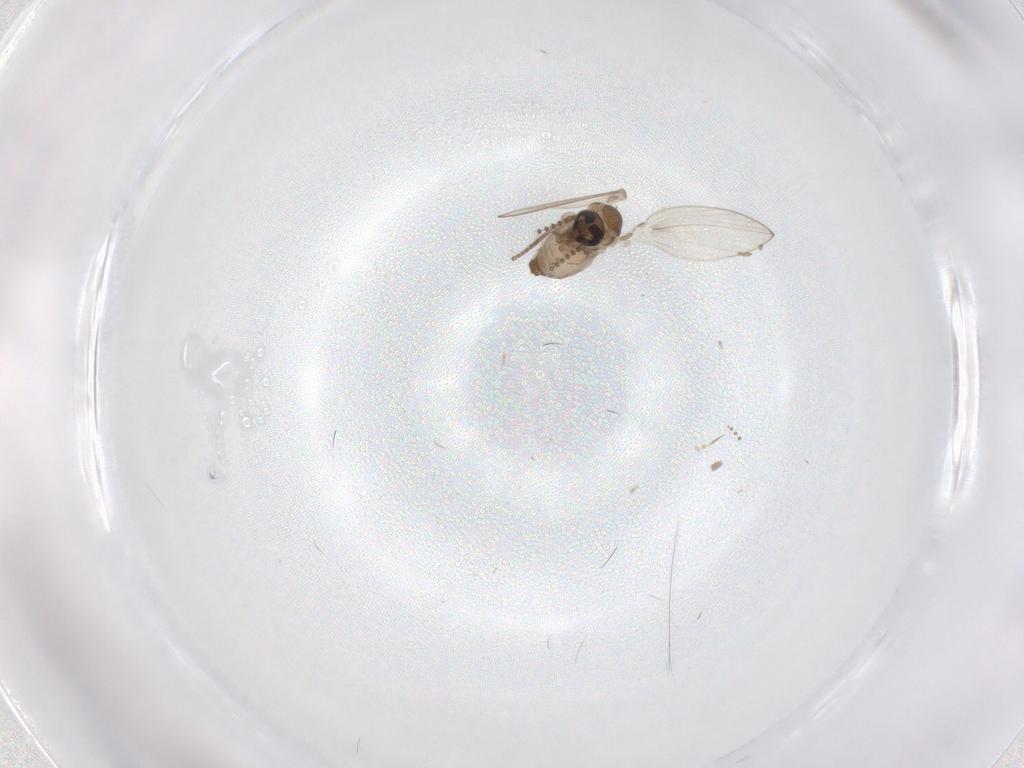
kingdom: Animalia
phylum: Arthropoda
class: Insecta
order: Diptera
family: Psychodidae
